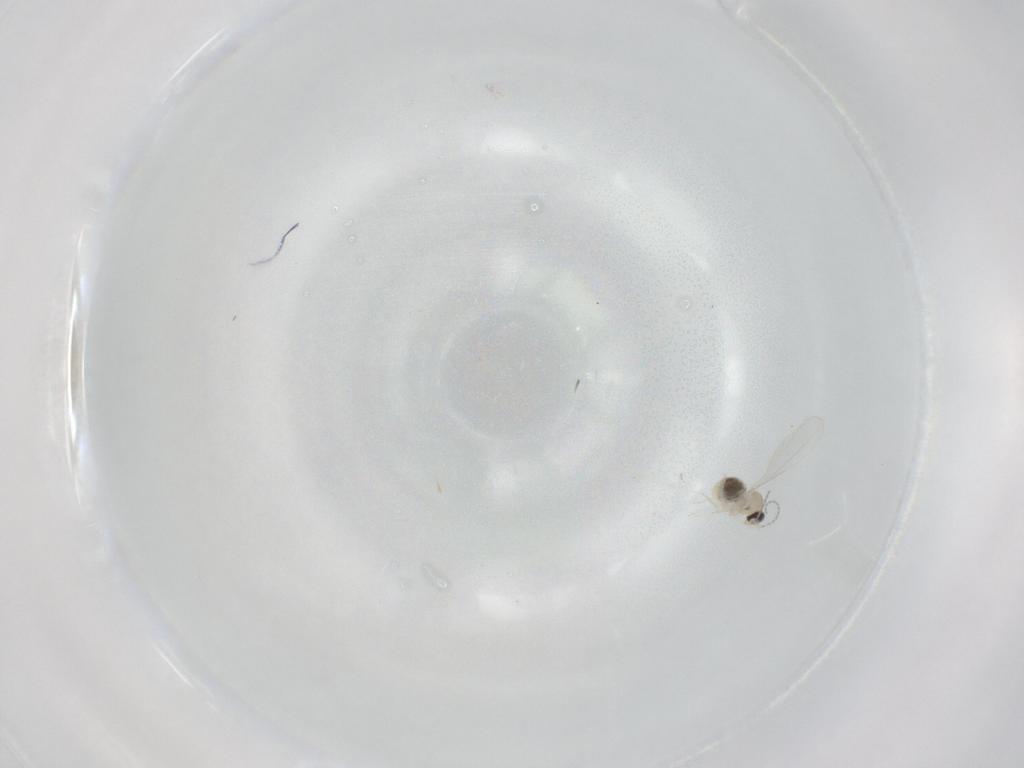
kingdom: Animalia
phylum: Arthropoda
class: Insecta
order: Diptera
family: Cecidomyiidae
